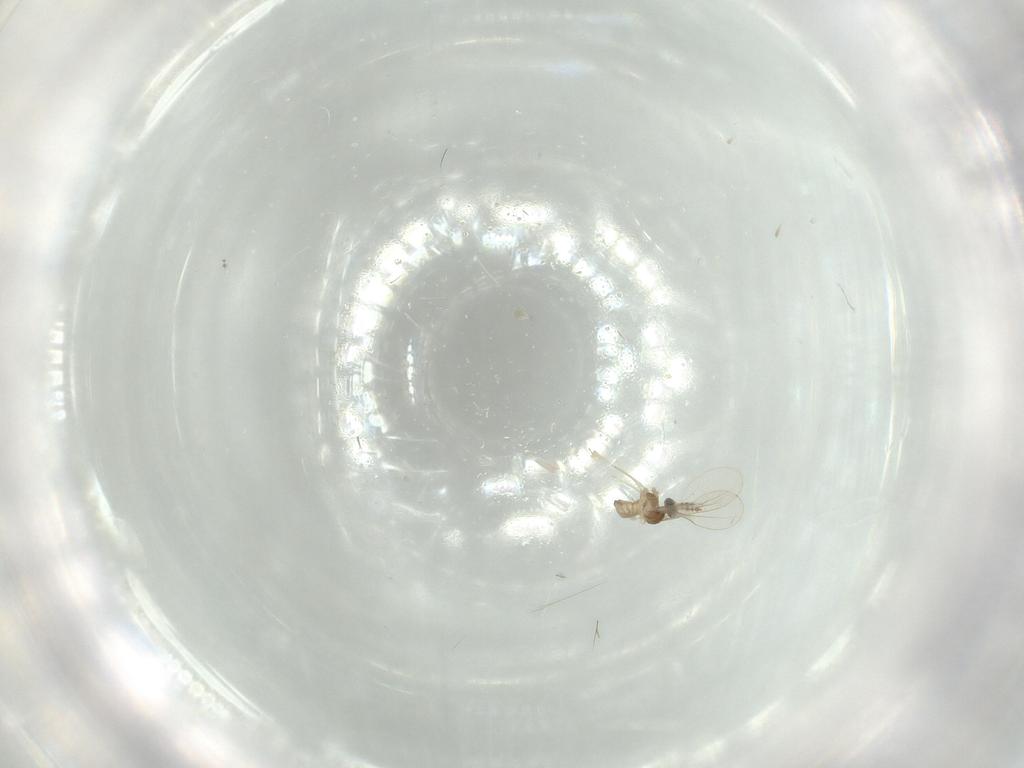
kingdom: Animalia
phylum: Arthropoda
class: Insecta
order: Diptera
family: Cecidomyiidae
